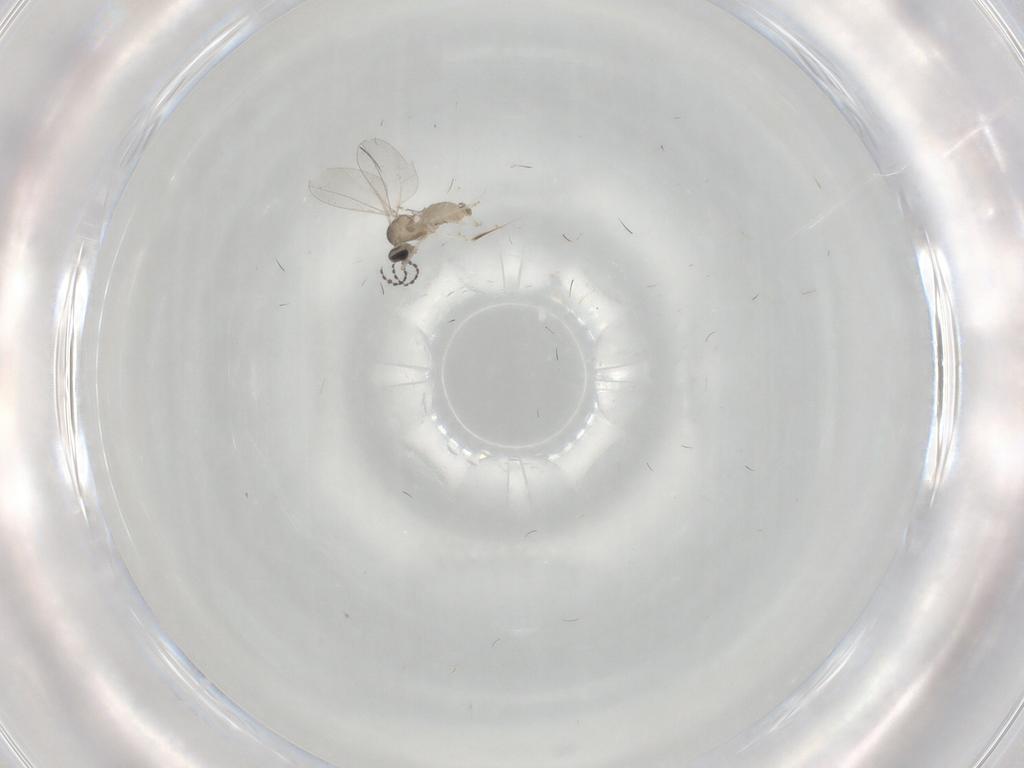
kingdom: Animalia
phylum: Arthropoda
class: Insecta
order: Diptera
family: Cecidomyiidae
